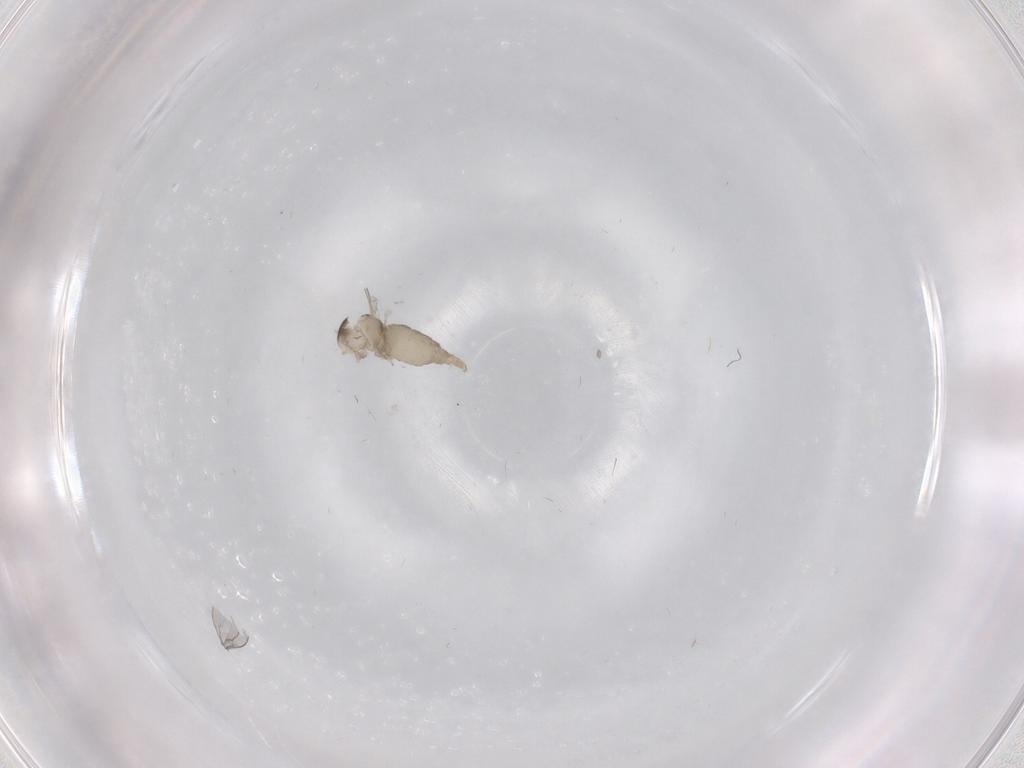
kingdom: Animalia
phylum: Arthropoda
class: Insecta
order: Diptera
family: Cecidomyiidae
